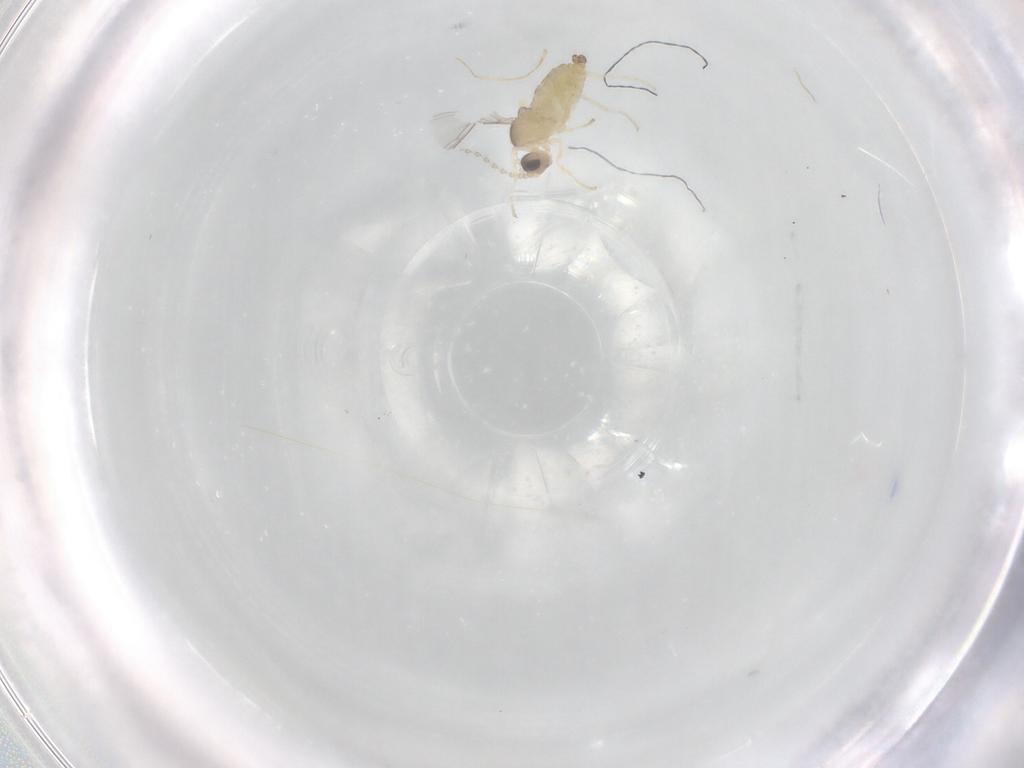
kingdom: Animalia
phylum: Arthropoda
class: Insecta
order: Diptera
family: Cecidomyiidae
